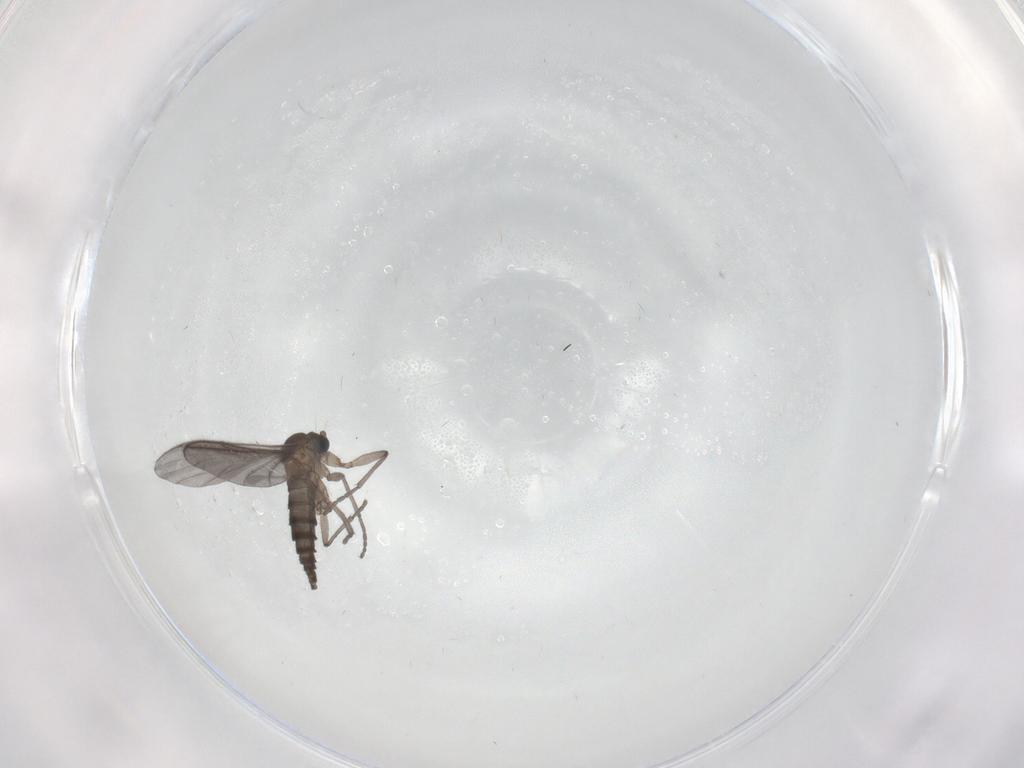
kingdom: Animalia
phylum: Arthropoda
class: Insecta
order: Diptera
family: Sciaridae
